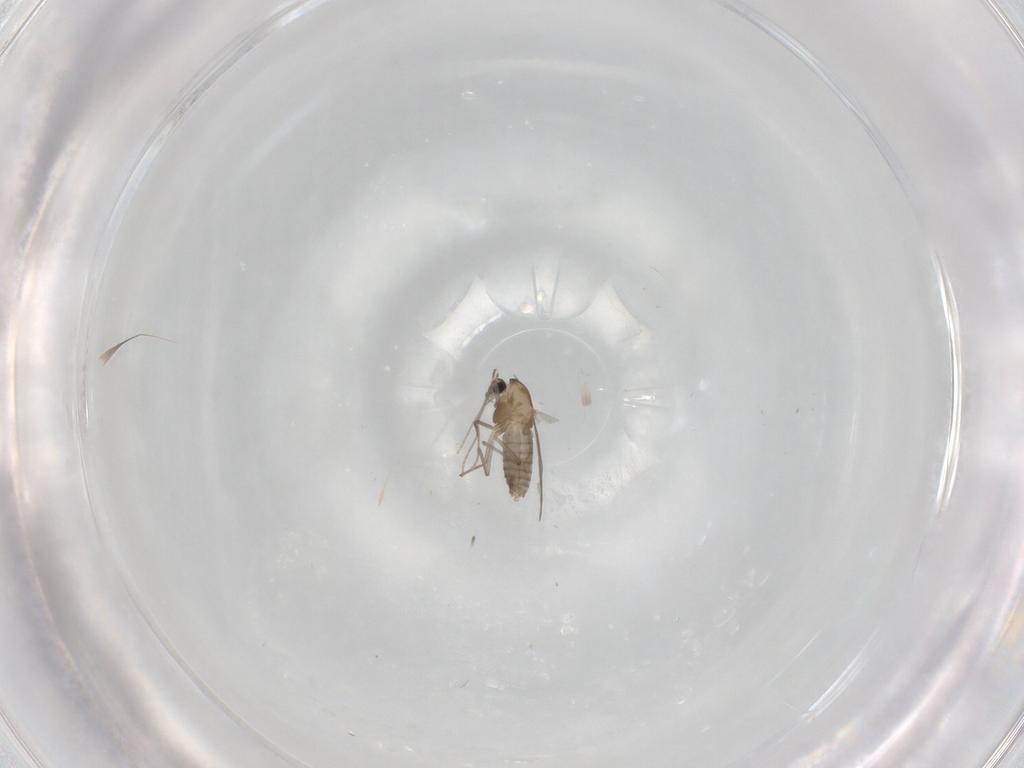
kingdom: Animalia
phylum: Arthropoda
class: Insecta
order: Diptera
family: Chironomidae
